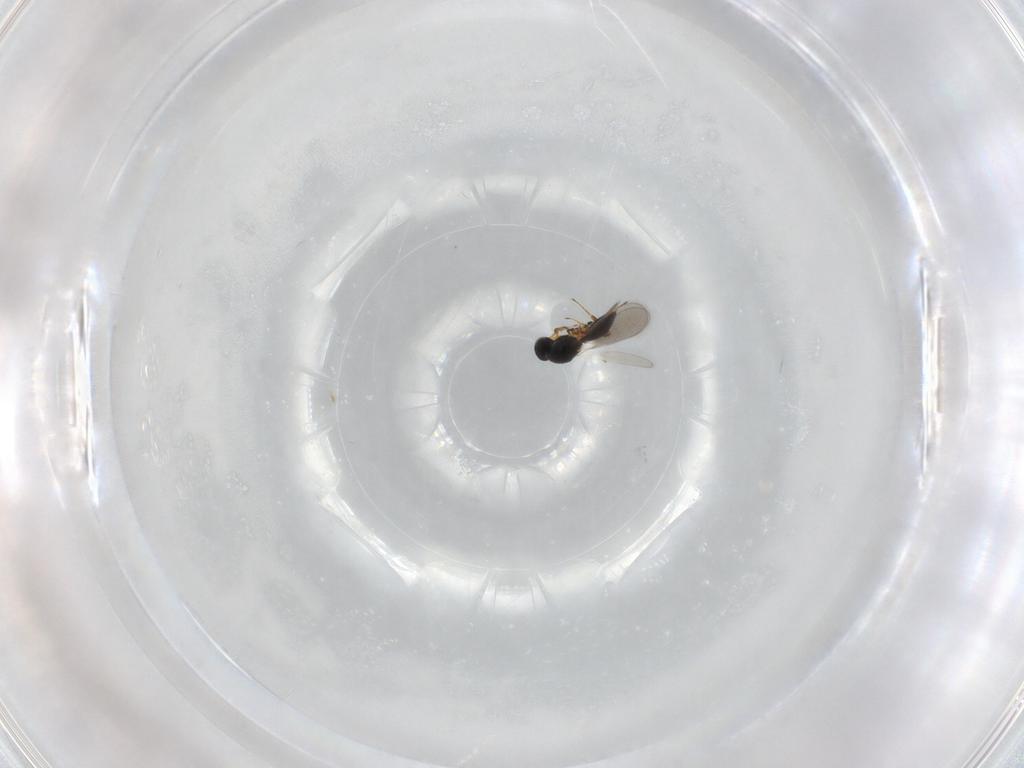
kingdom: Animalia
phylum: Arthropoda
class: Insecta
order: Hymenoptera
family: Platygastridae
